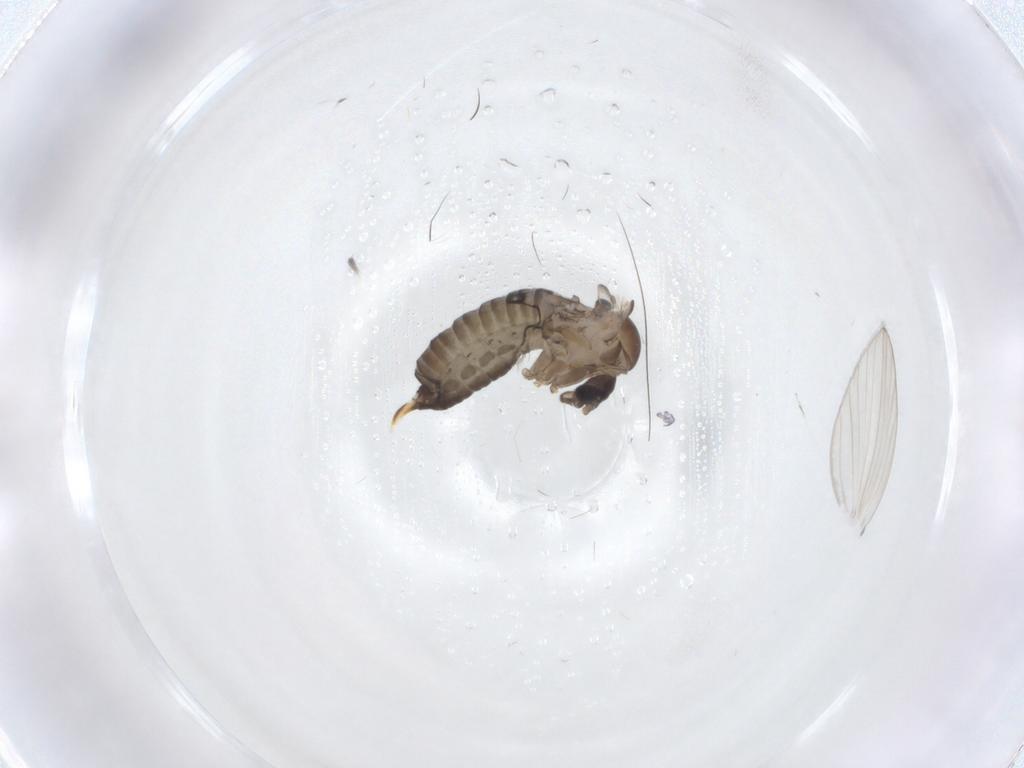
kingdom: Animalia
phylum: Arthropoda
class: Insecta
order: Diptera
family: Psychodidae
